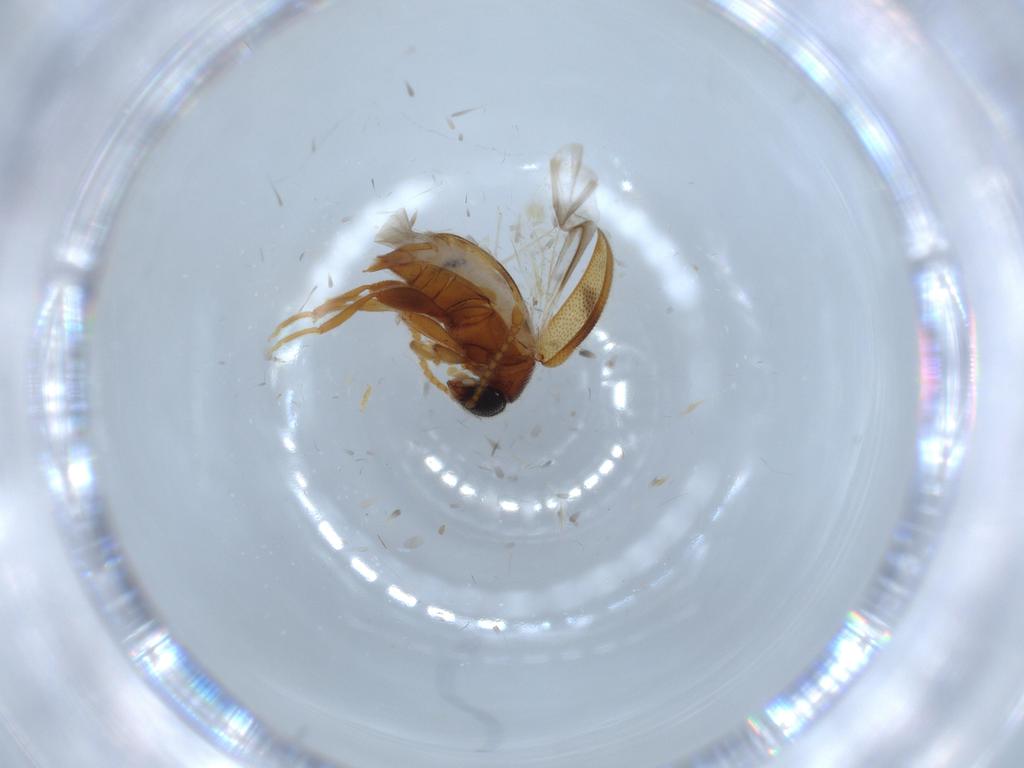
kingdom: Animalia
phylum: Arthropoda
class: Insecta
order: Coleoptera
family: Aderidae
